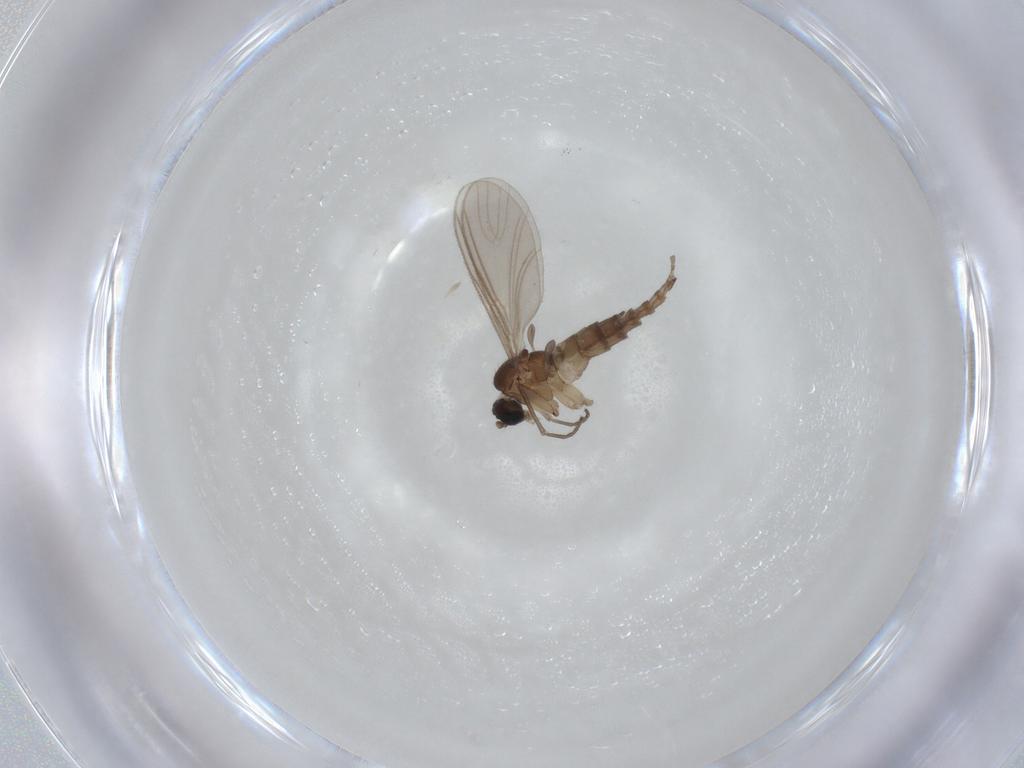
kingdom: Animalia
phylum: Arthropoda
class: Insecta
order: Diptera
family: Sciaridae
